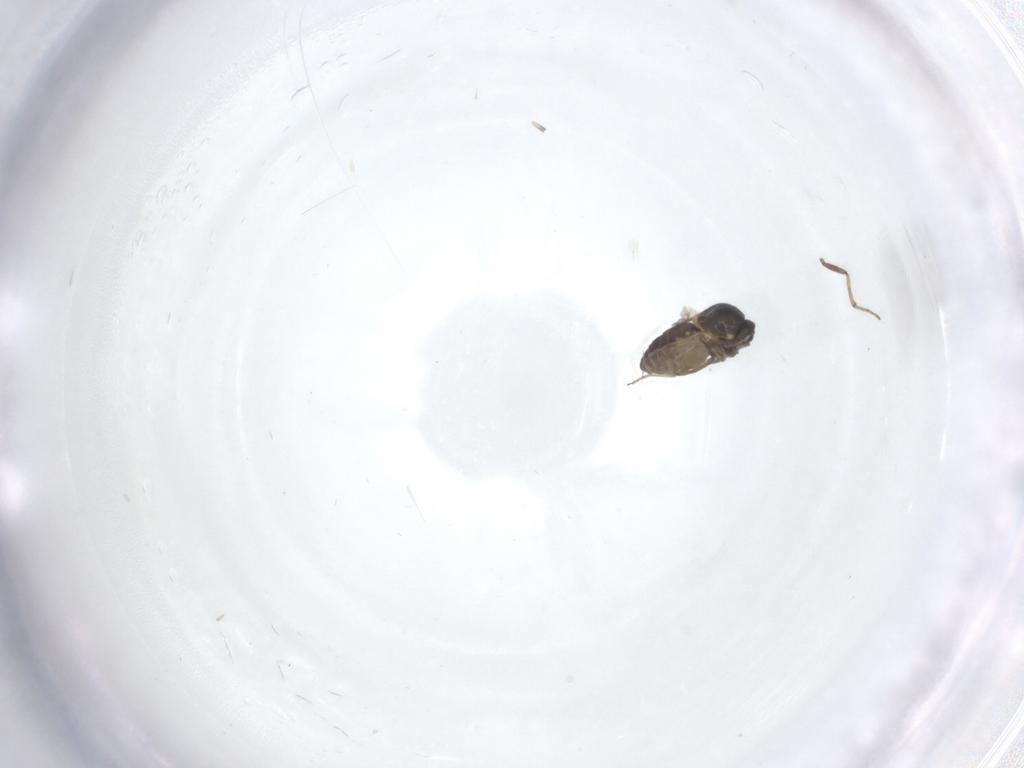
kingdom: Animalia
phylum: Arthropoda
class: Insecta
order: Diptera
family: Ceratopogonidae
